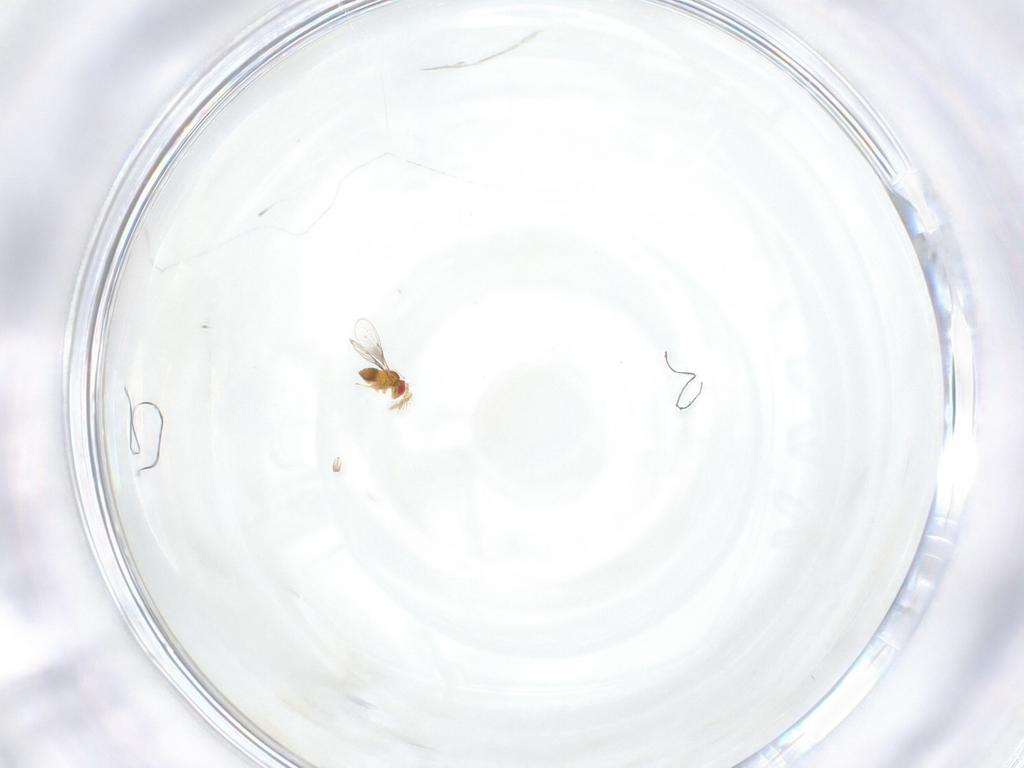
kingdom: Animalia
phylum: Arthropoda
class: Insecta
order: Hymenoptera
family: Trichogrammatidae
